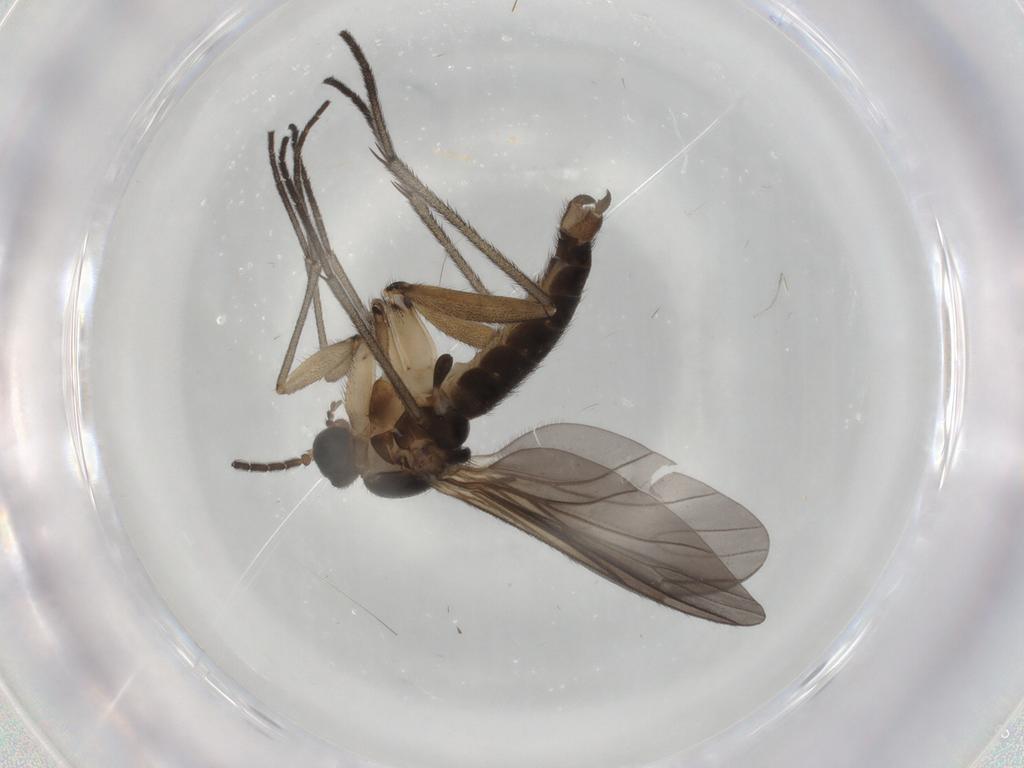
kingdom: Animalia
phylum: Arthropoda
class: Insecta
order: Diptera
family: Sciaridae
